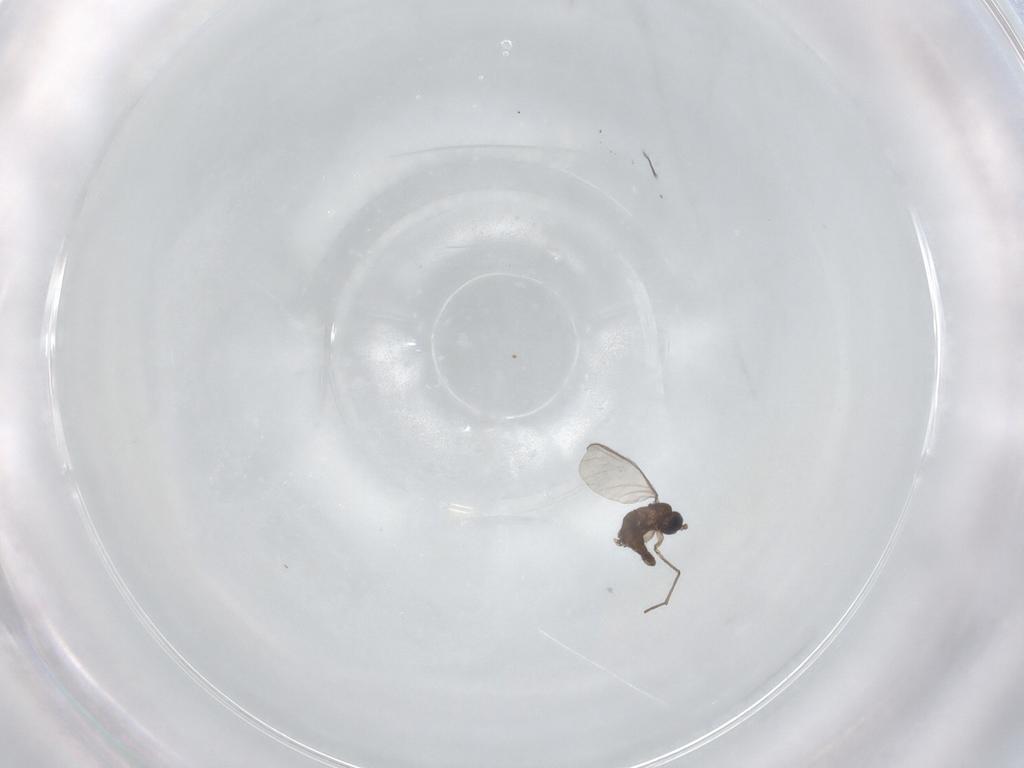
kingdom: Animalia
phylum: Arthropoda
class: Insecta
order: Diptera
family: Sciaridae
